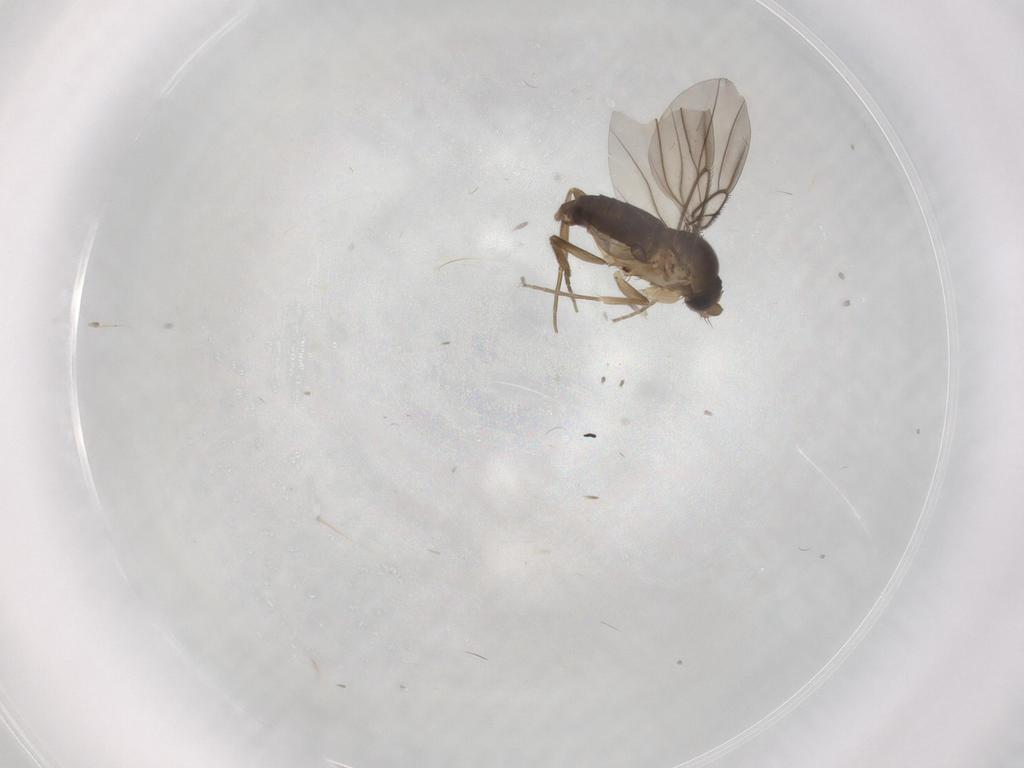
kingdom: Animalia
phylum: Arthropoda
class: Insecta
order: Diptera
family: Phoridae
